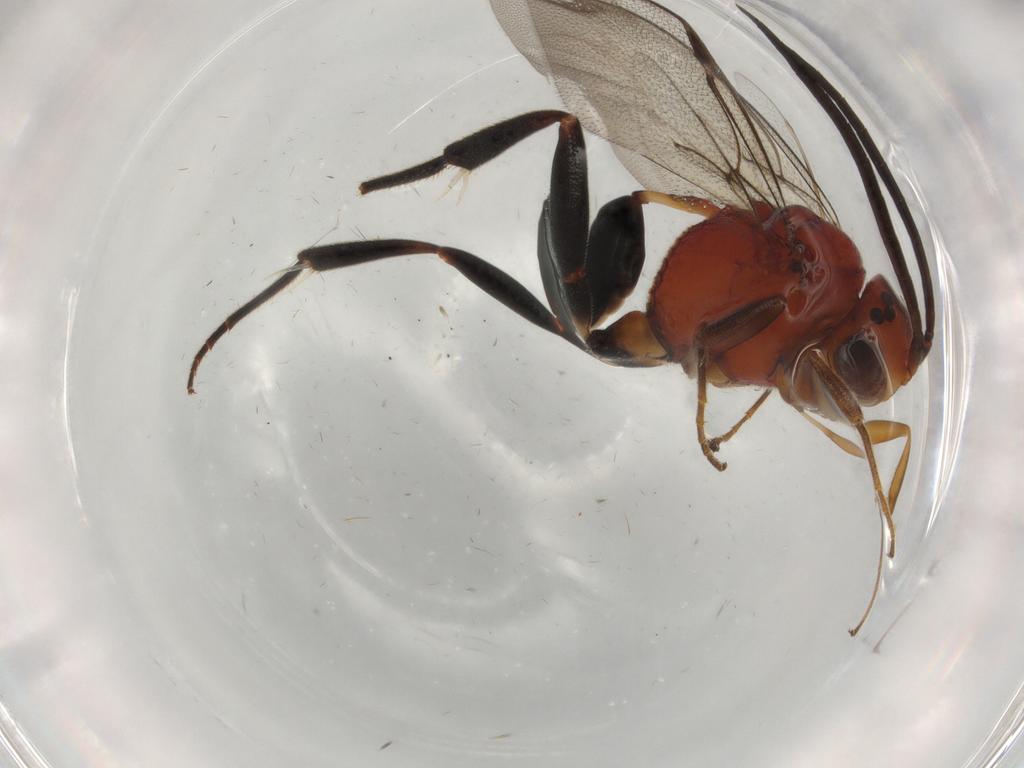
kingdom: Animalia
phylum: Arthropoda
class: Insecta
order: Hymenoptera
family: Evaniidae
